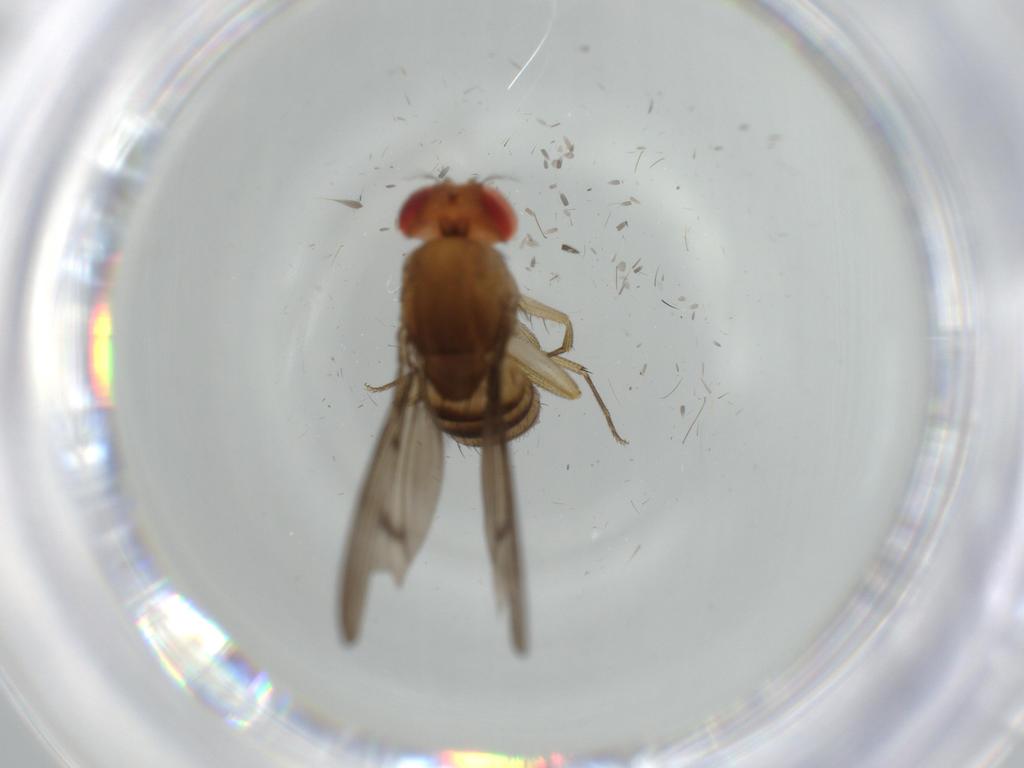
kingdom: Animalia
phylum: Arthropoda
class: Insecta
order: Diptera
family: Drosophilidae
